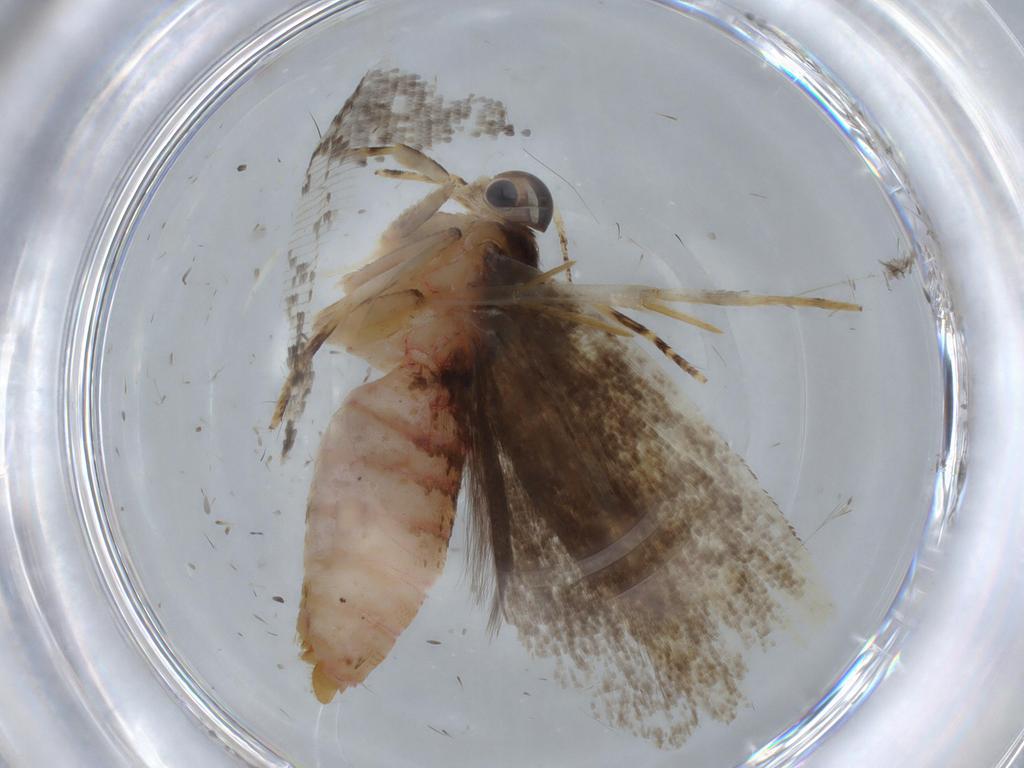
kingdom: Animalia
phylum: Arthropoda
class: Insecta
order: Lepidoptera
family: Lycaenidae
